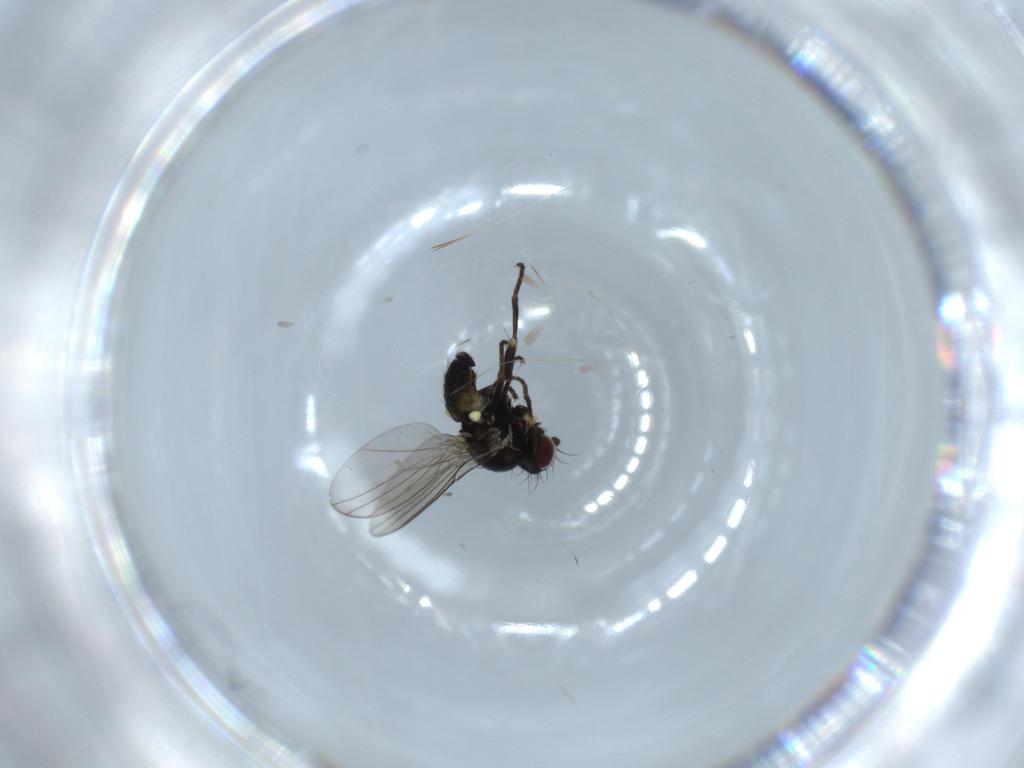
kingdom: Animalia
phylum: Arthropoda
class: Insecta
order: Diptera
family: Agromyzidae
